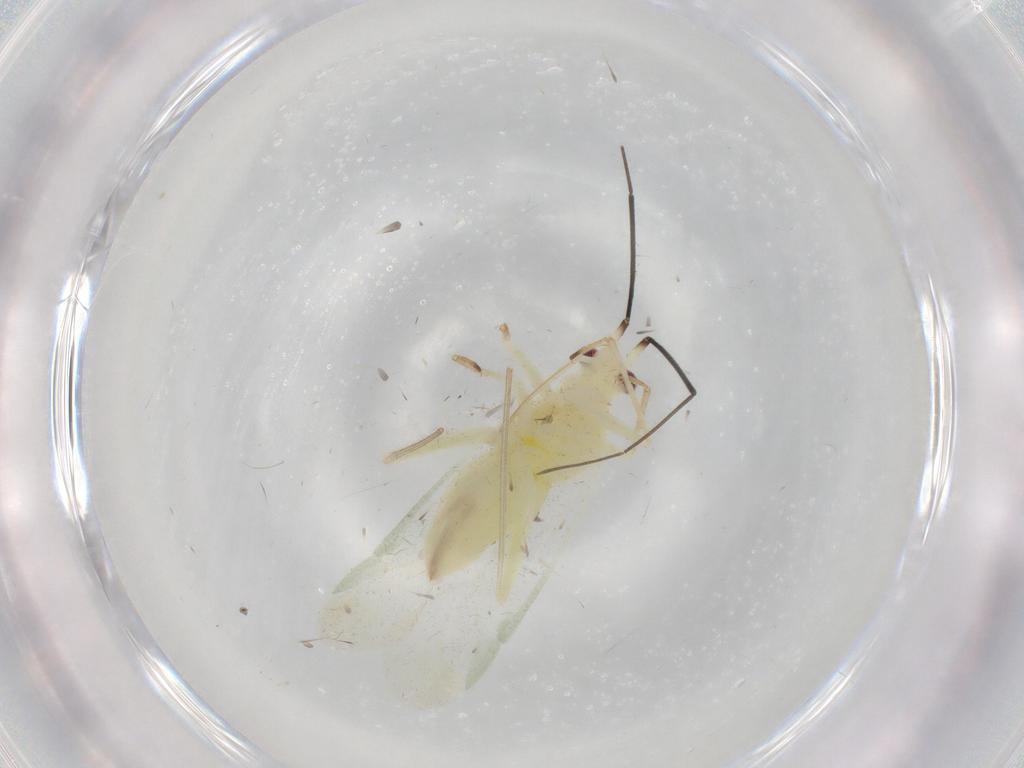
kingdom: Animalia
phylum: Arthropoda
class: Insecta
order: Hemiptera
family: Miridae
